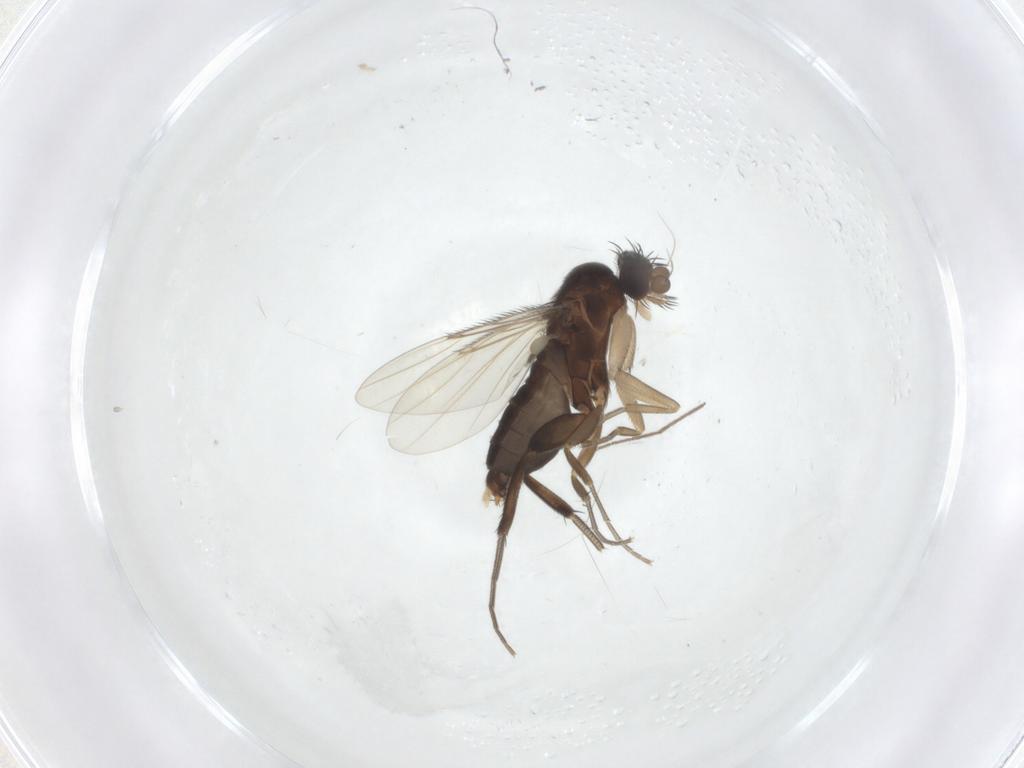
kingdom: Animalia
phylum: Arthropoda
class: Insecta
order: Diptera
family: Chironomidae
